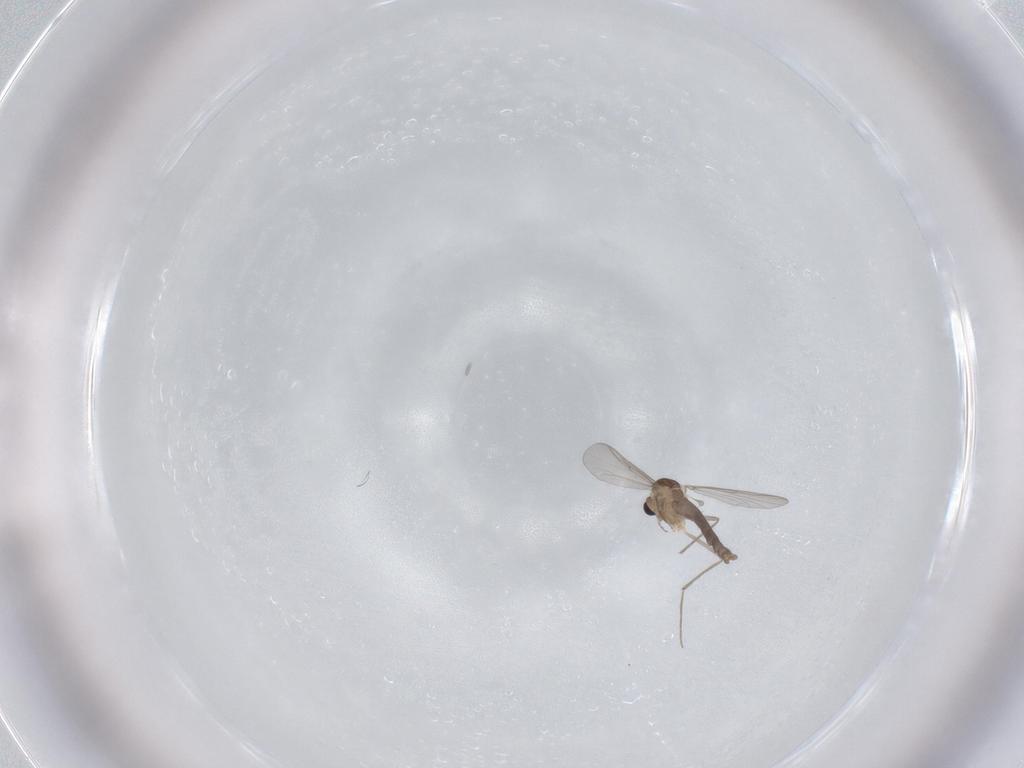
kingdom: Animalia
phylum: Arthropoda
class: Insecta
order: Diptera
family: Chironomidae
